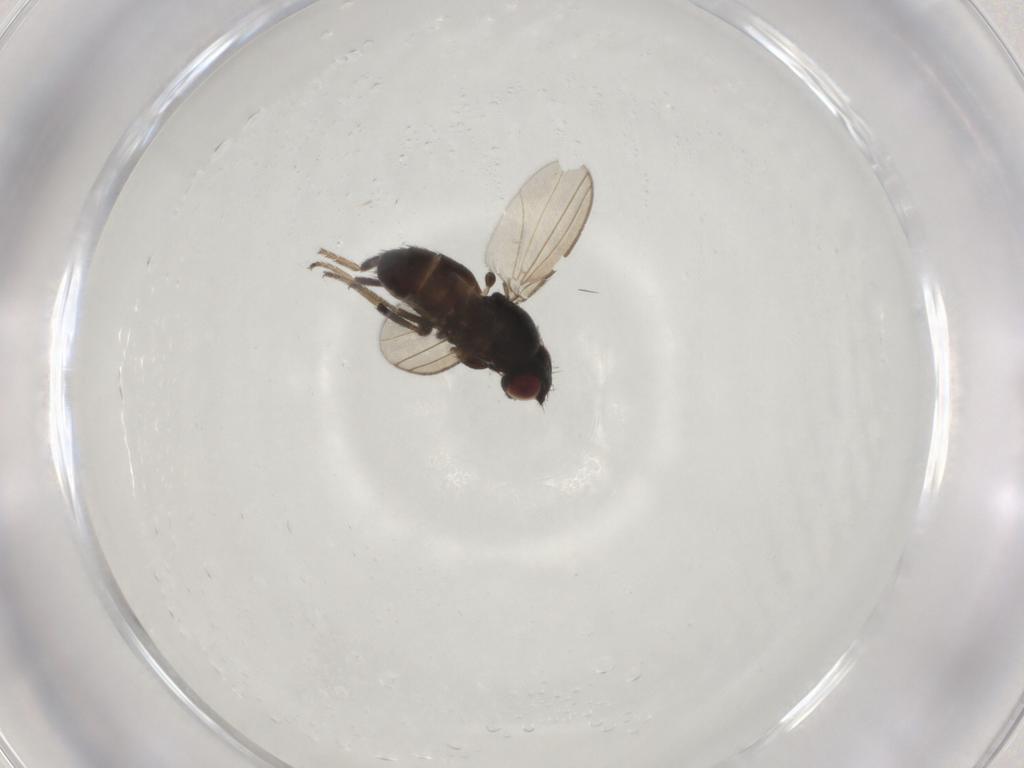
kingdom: Animalia
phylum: Arthropoda
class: Insecta
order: Diptera
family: Milichiidae
